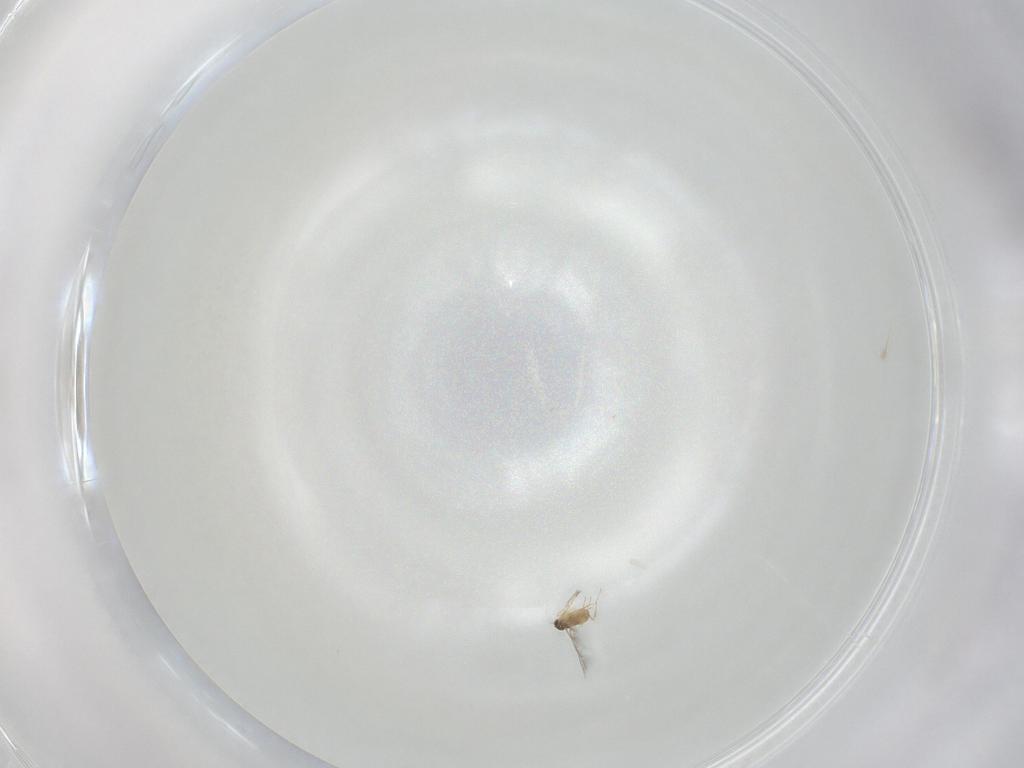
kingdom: Animalia
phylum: Arthropoda
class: Insecta
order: Hymenoptera
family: Mymaridae
